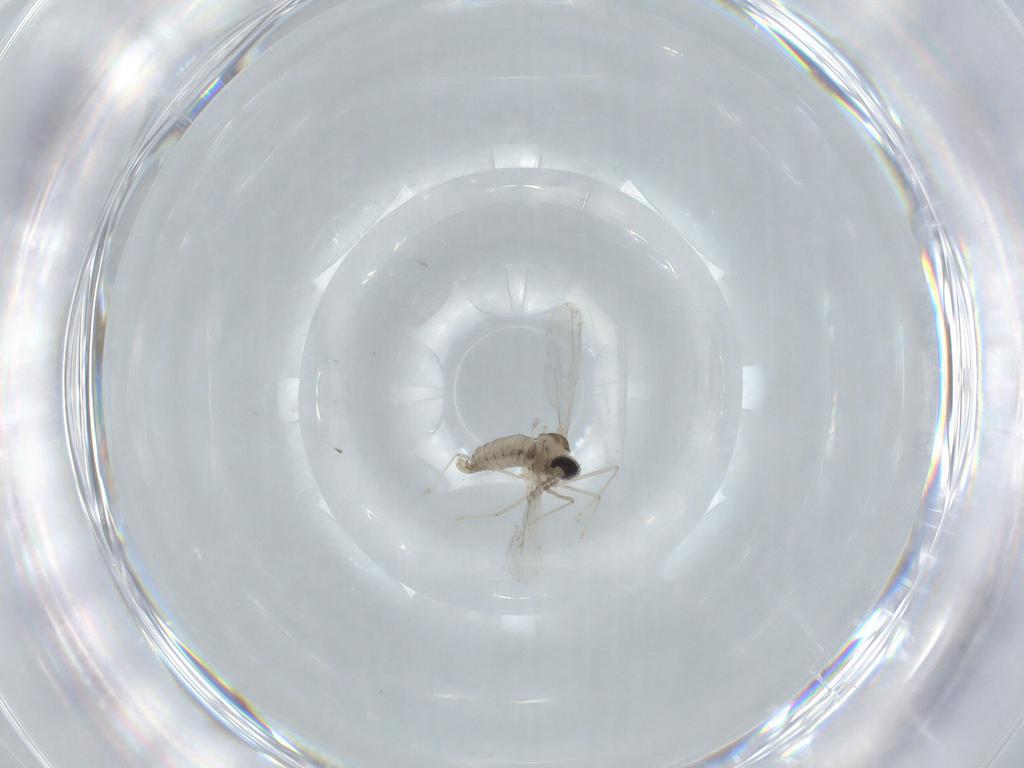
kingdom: Animalia
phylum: Arthropoda
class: Insecta
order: Diptera
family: Cecidomyiidae
